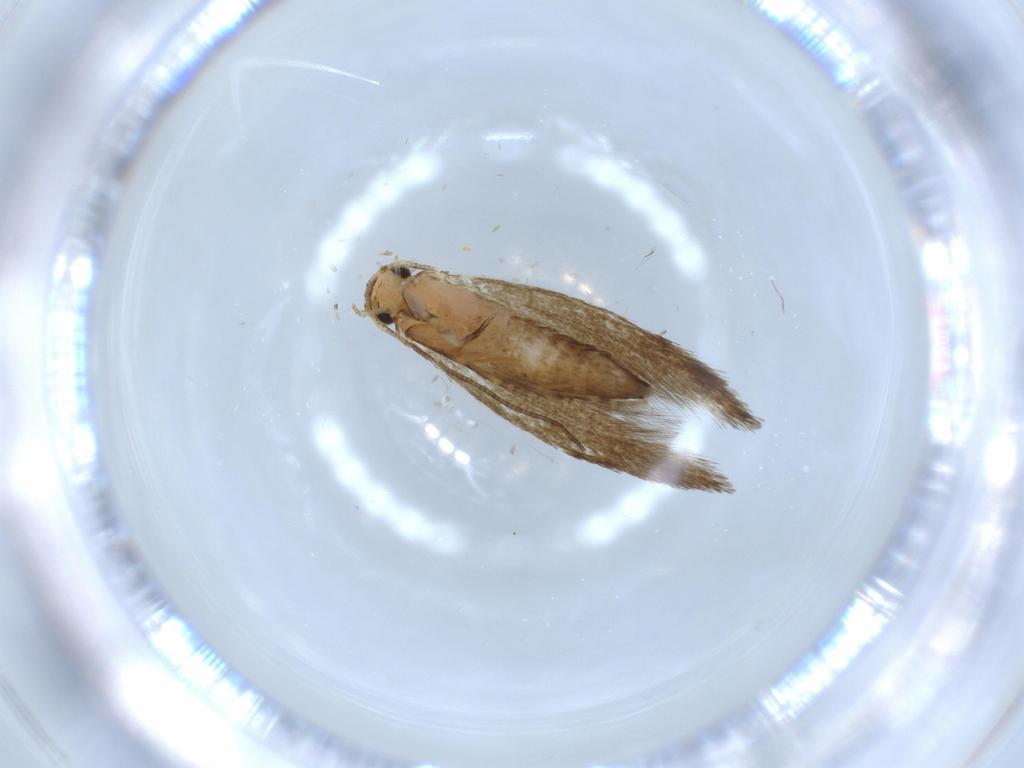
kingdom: Animalia
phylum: Arthropoda
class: Insecta
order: Lepidoptera
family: Tineidae
